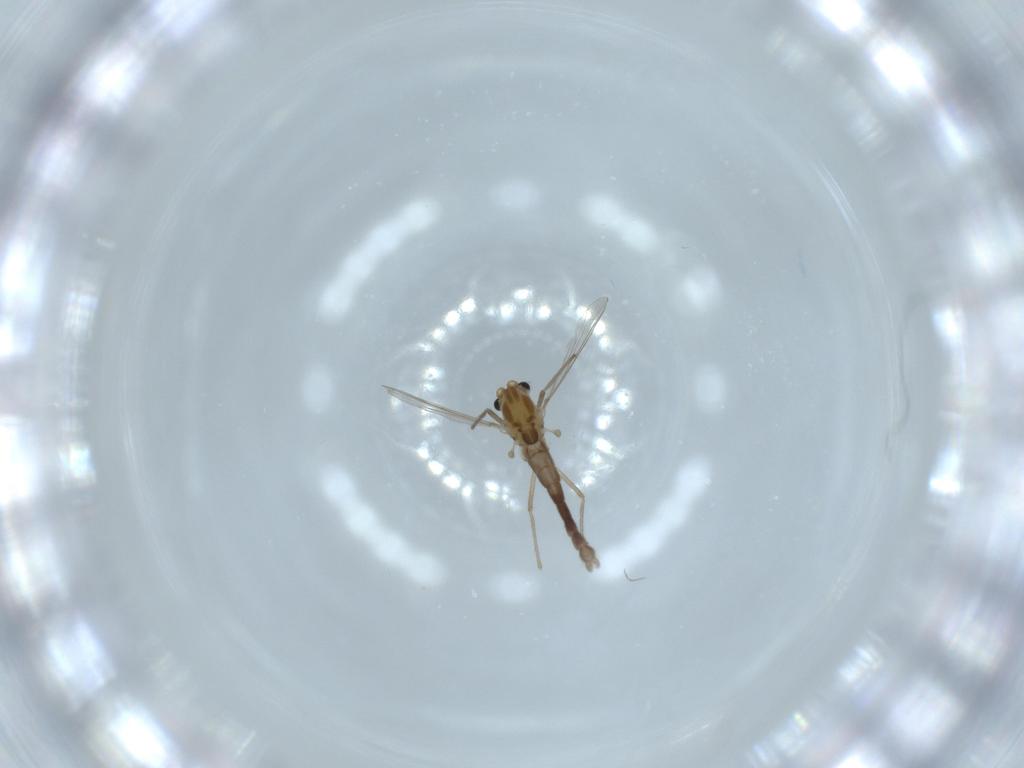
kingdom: Animalia
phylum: Arthropoda
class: Insecta
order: Diptera
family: Chironomidae
